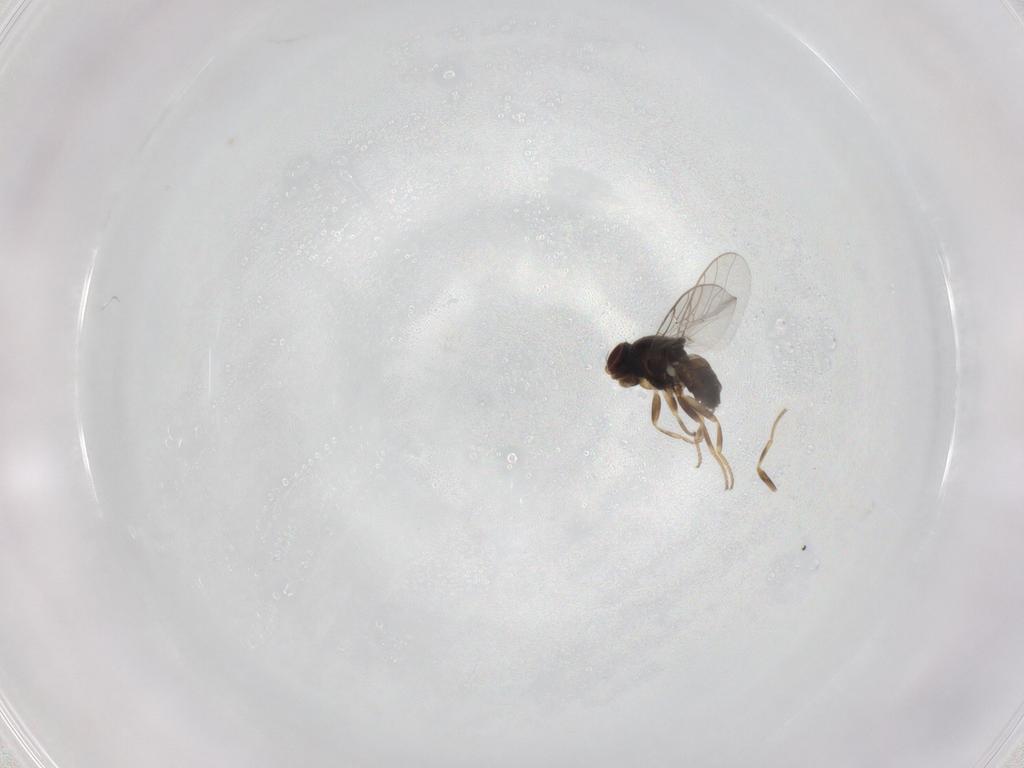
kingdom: Animalia
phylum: Arthropoda
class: Insecta
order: Diptera
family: Chloropidae
